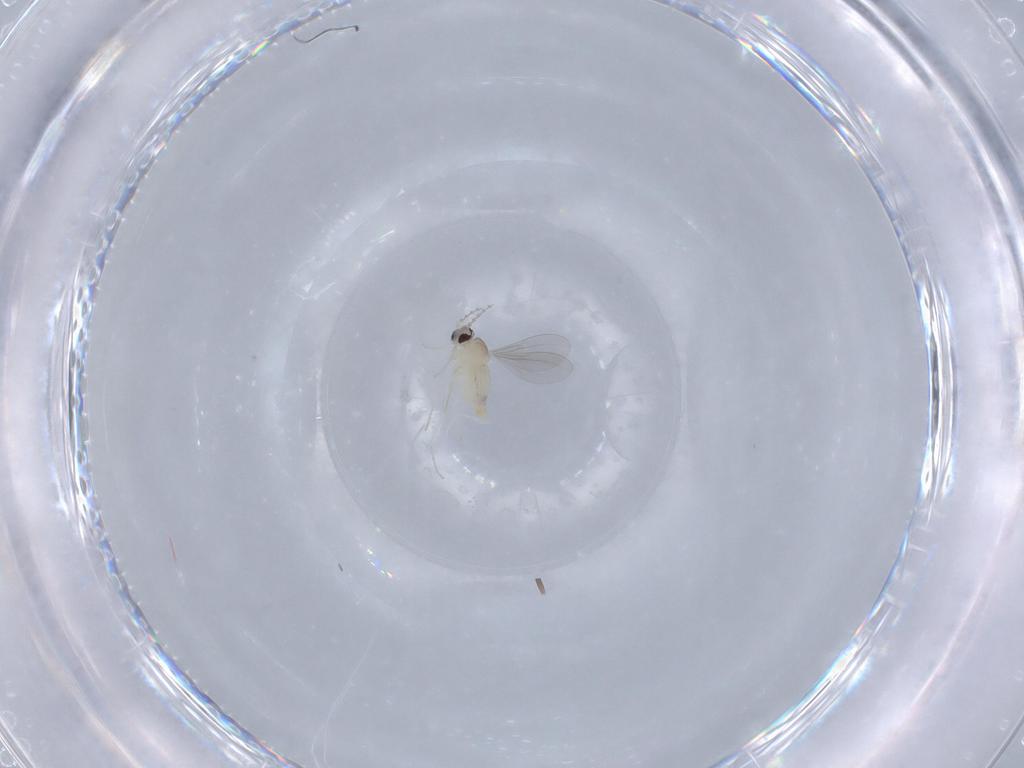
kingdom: Animalia
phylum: Arthropoda
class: Insecta
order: Diptera
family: Cecidomyiidae
